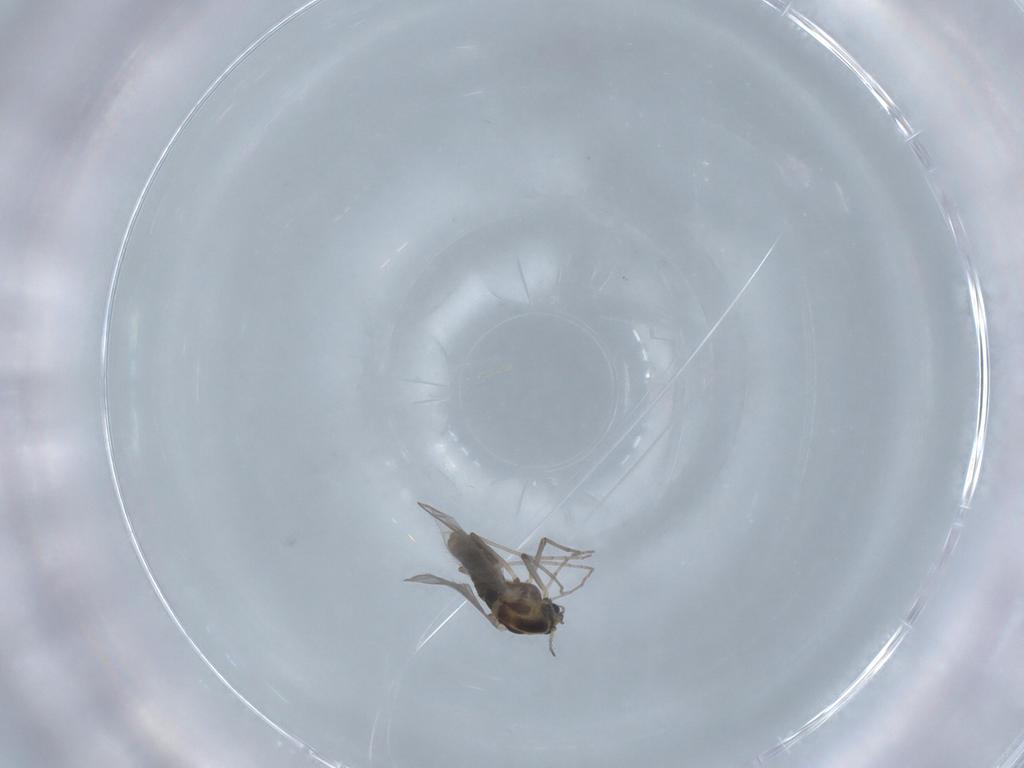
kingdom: Animalia
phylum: Arthropoda
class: Insecta
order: Diptera
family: Chironomidae
